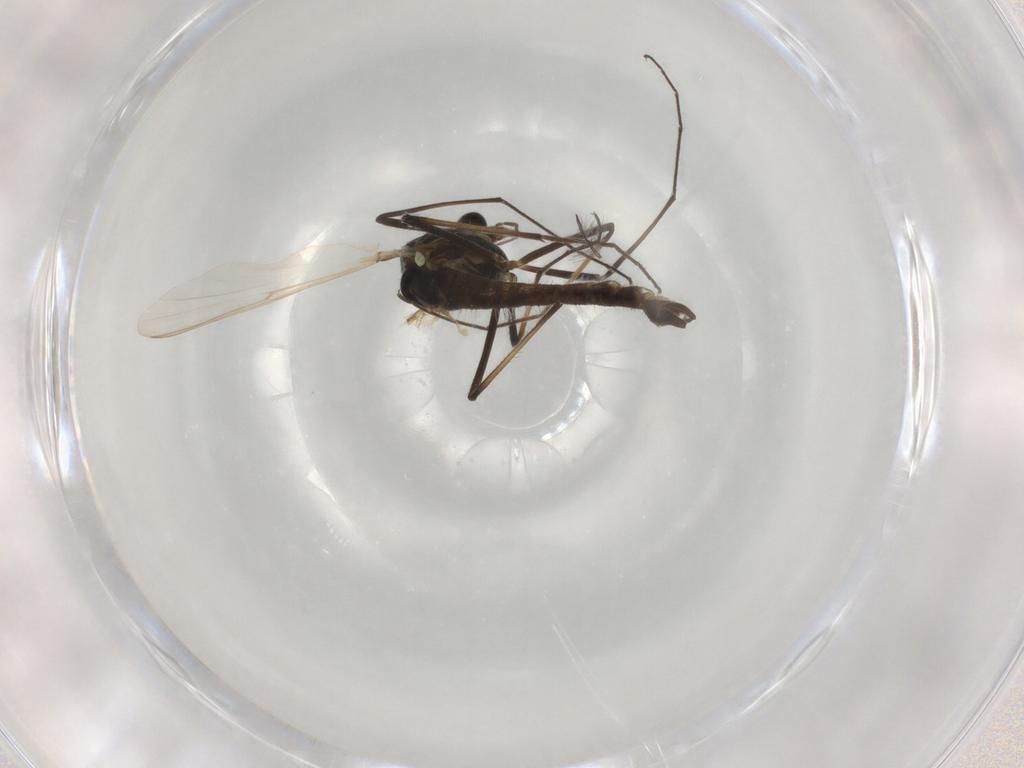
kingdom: Animalia
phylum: Arthropoda
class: Insecta
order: Diptera
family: Chironomidae
